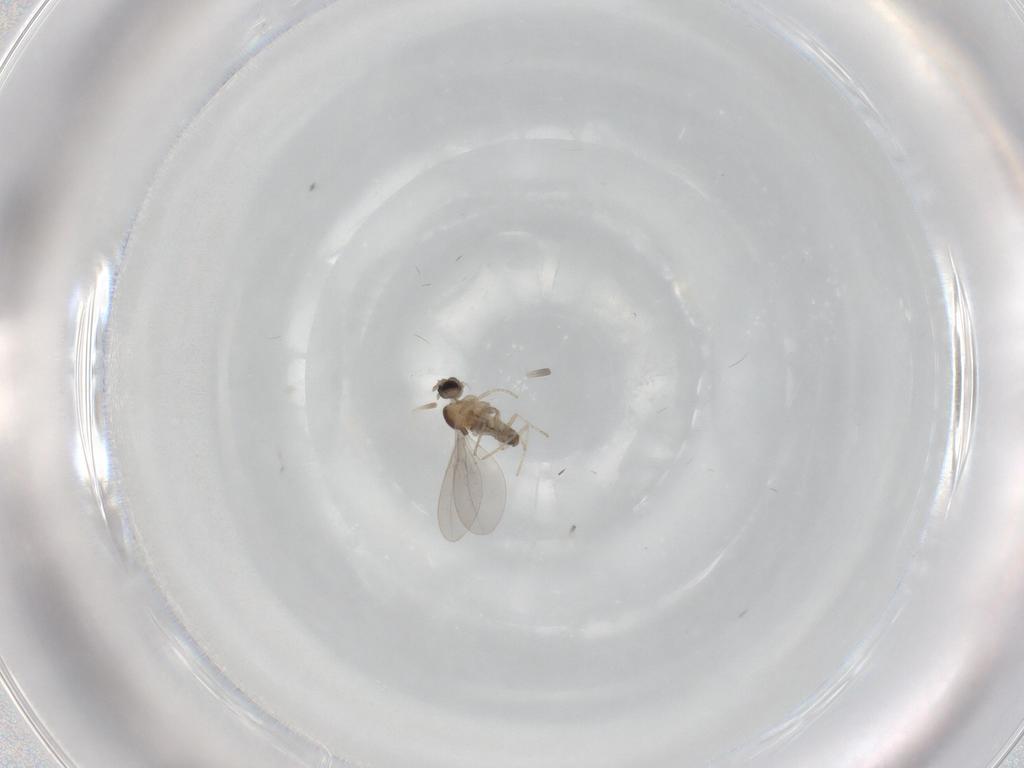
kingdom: Animalia
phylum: Arthropoda
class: Insecta
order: Diptera
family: Cecidomyiidae
